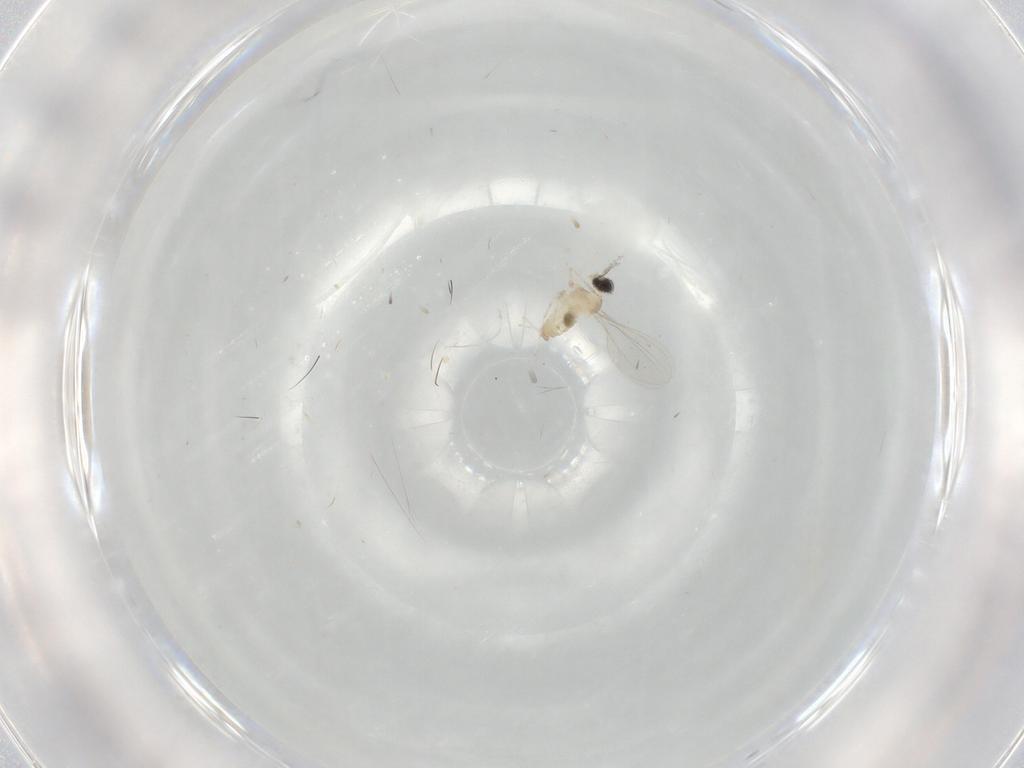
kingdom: Animalia
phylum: Arthropoda
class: Insecta
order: Diptera
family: Cecidomyiidae
